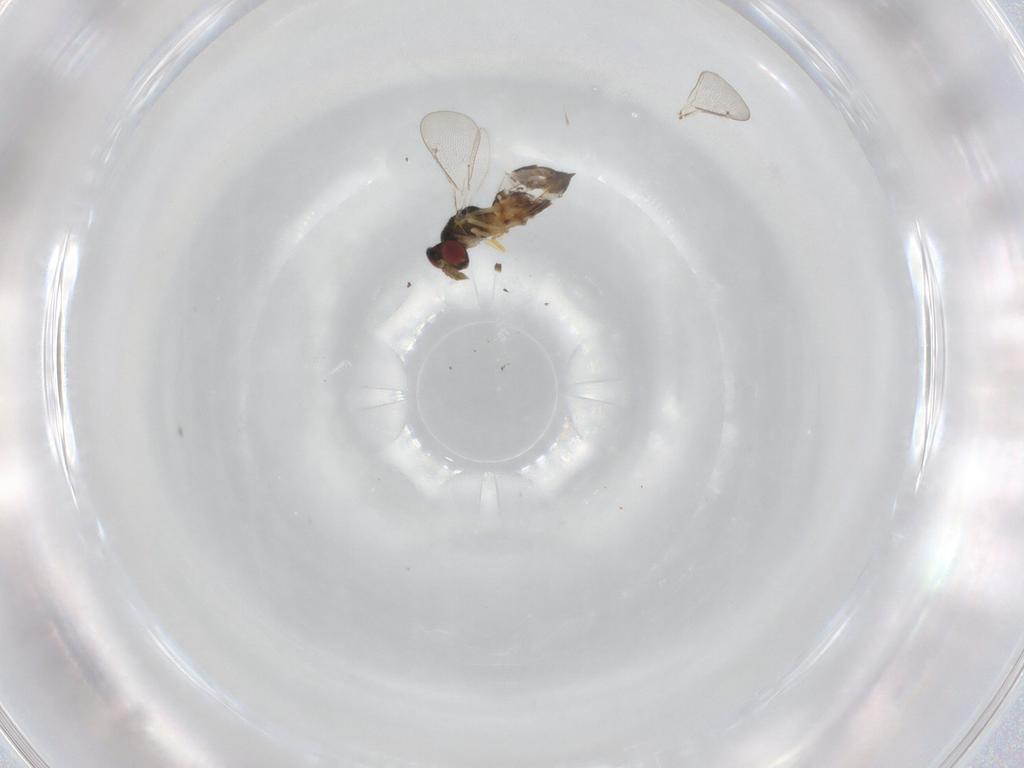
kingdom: Animalia
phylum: Arthropoda
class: Insecta
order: Hymenoptera
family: Eulophidae
